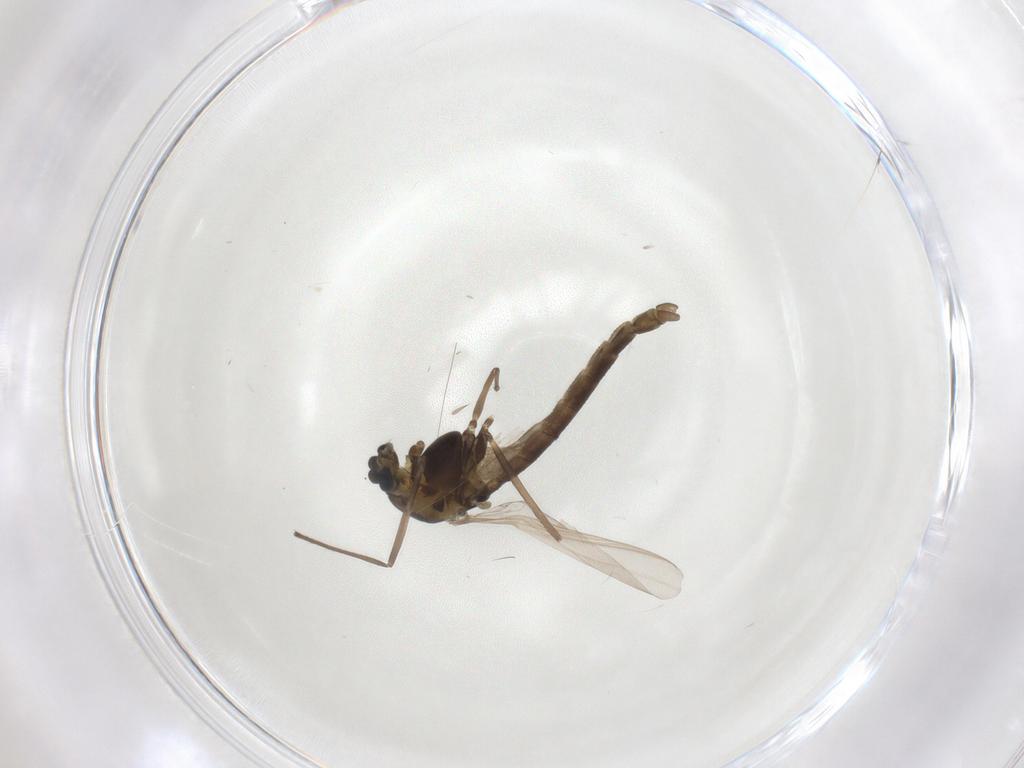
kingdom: Animalia
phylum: Arthropoda
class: Insecta
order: Diptera
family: Chironomidae
